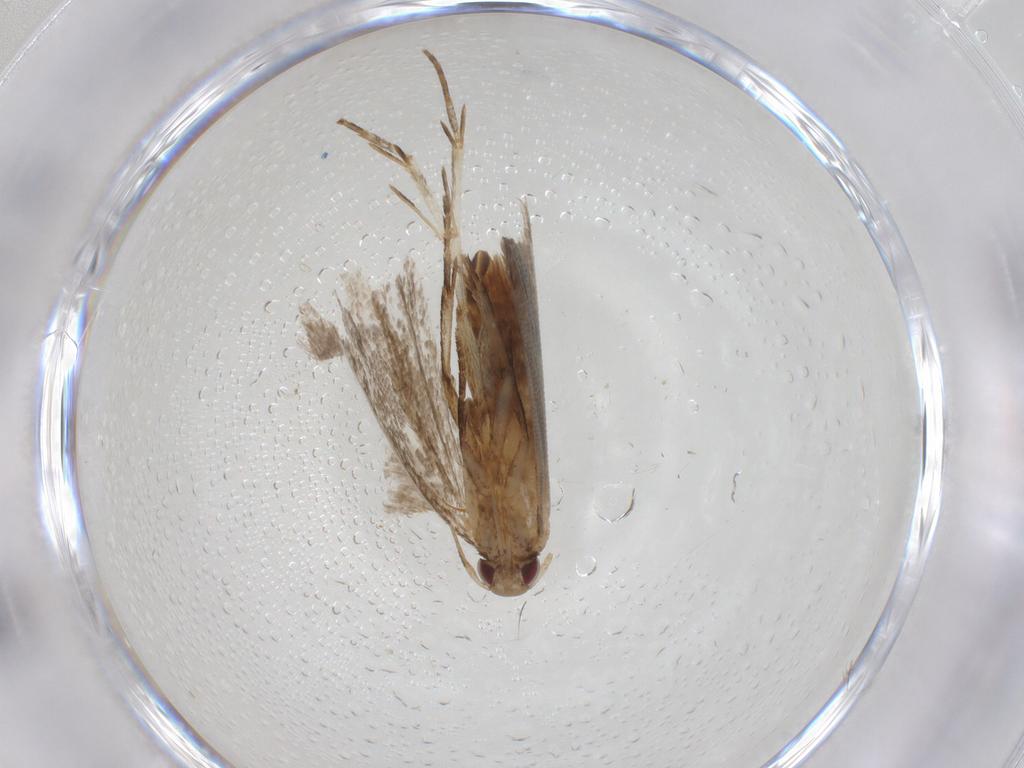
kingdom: Animalia
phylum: Arthropoda
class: Insecta
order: Lepidoptera
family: Gelechiidae
